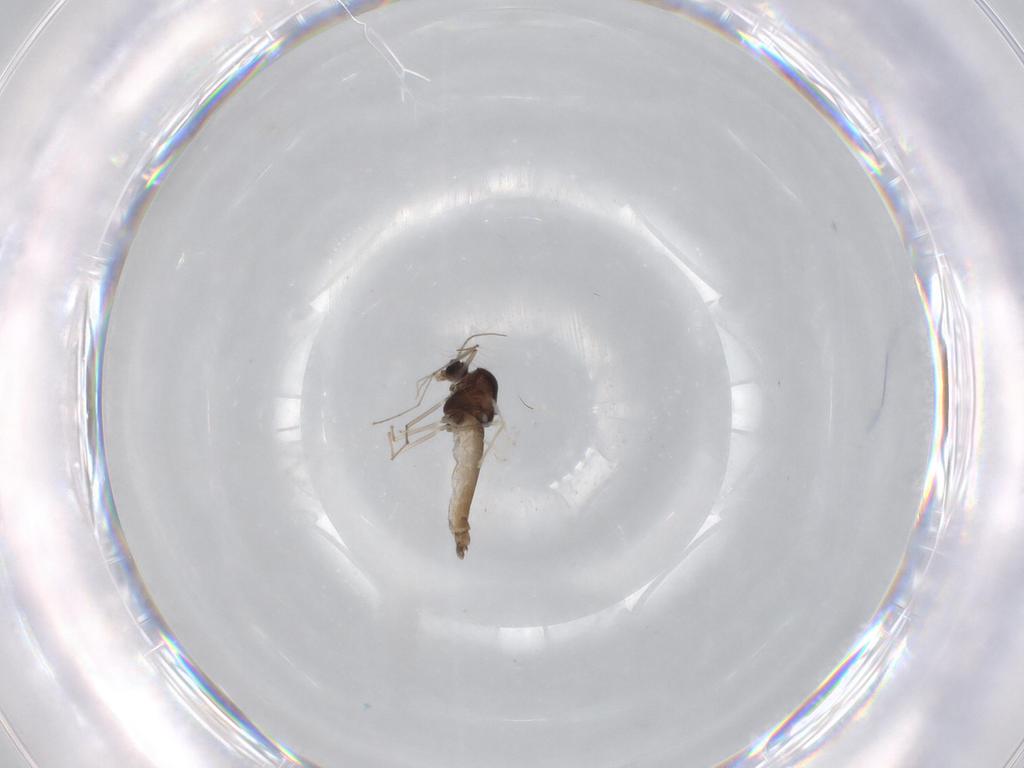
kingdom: Animalia
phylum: Arthropoda
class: Insecta
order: Diptera
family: Chironomidae
